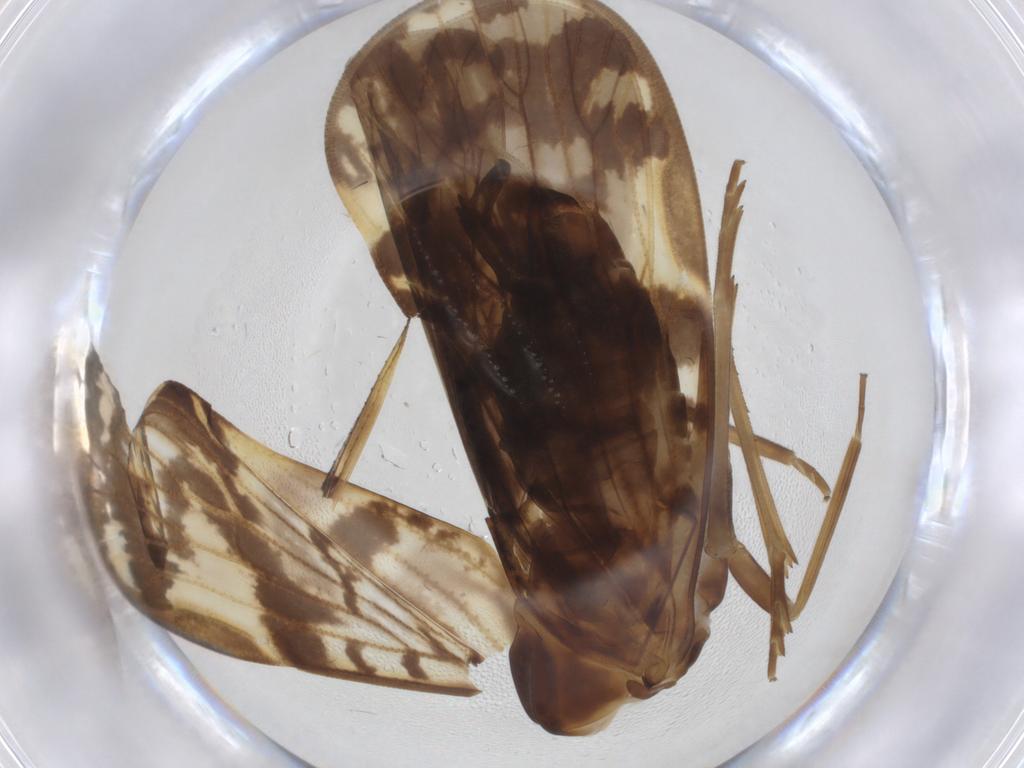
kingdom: Animalia
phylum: Arthropoda
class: Insecta
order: Hemiptera
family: Cixiidae
